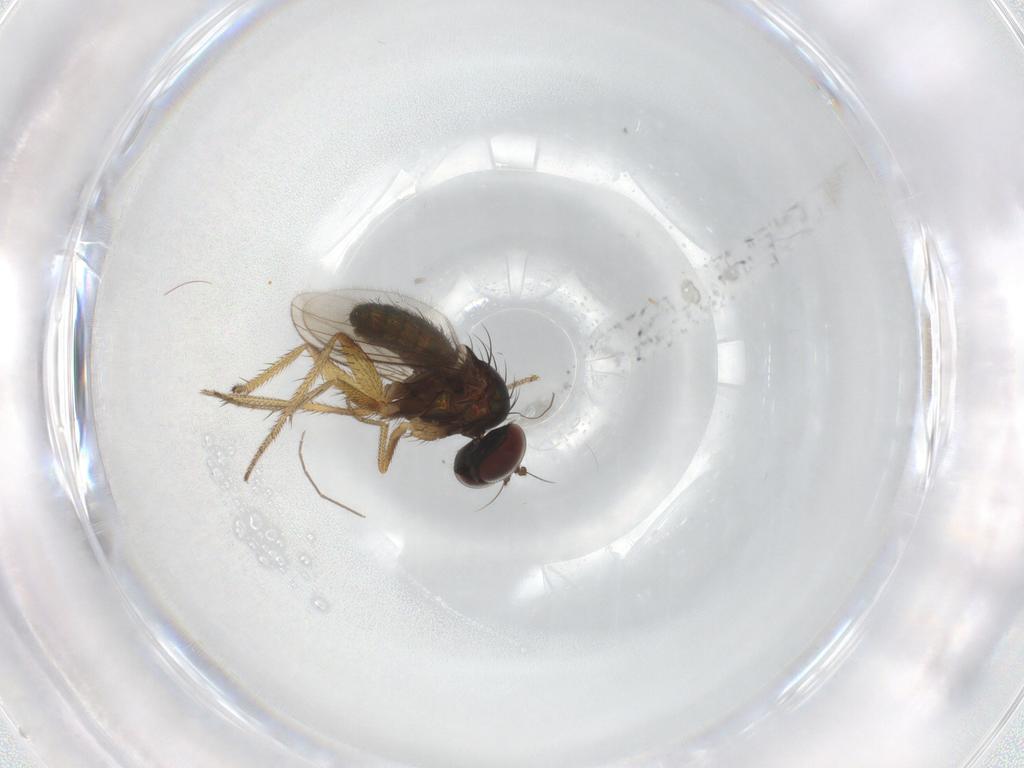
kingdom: Animalia
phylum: Arthropoda
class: Insecta
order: Diptera
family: Dolichopodidae
